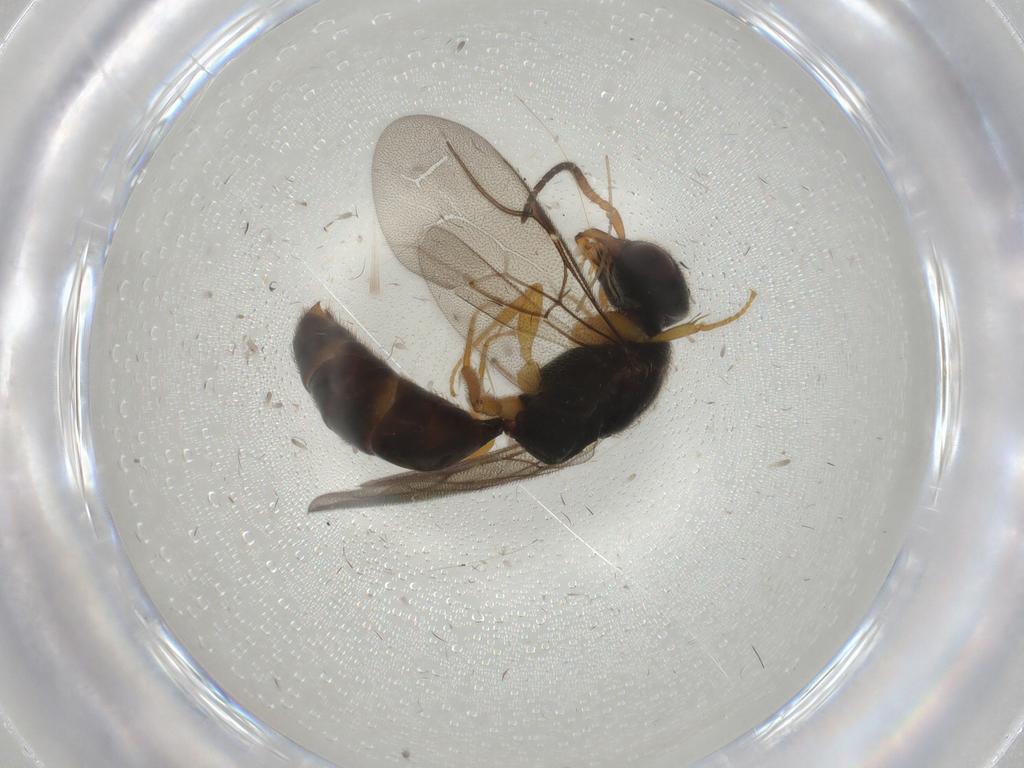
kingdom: Animalia
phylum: Arthropoda
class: Insecta
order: Hymenoptera
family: Bethylidae
